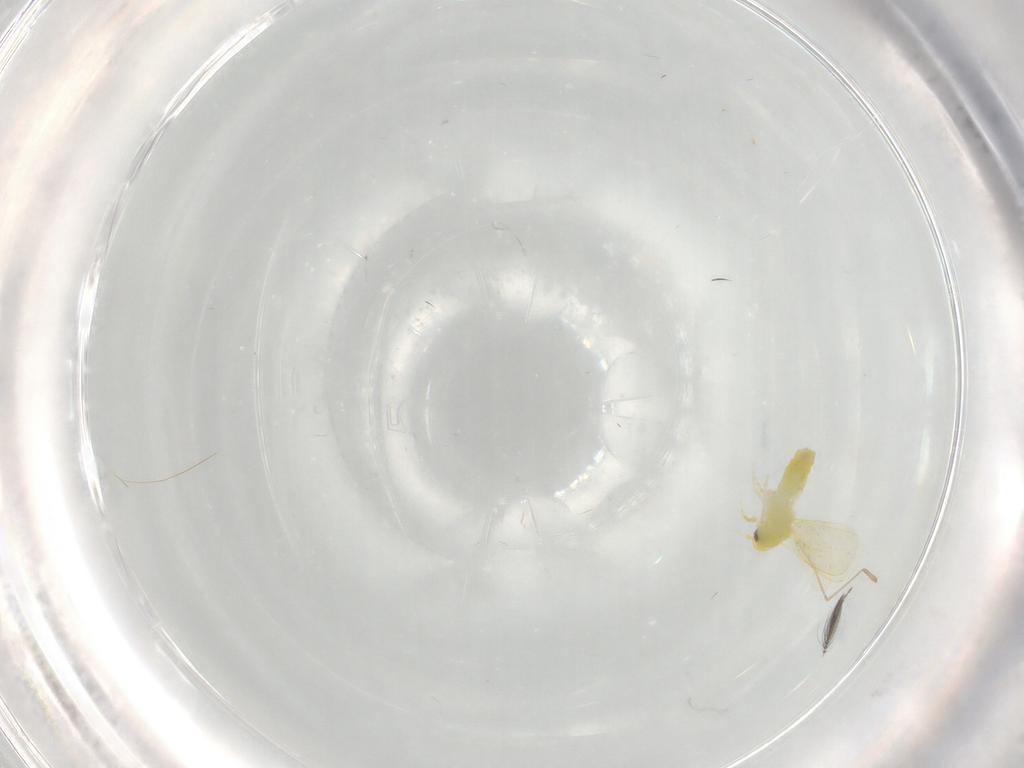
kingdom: Animalia
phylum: Arthropoda
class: Insecta
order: Hemiptera
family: Aleyrodidae
